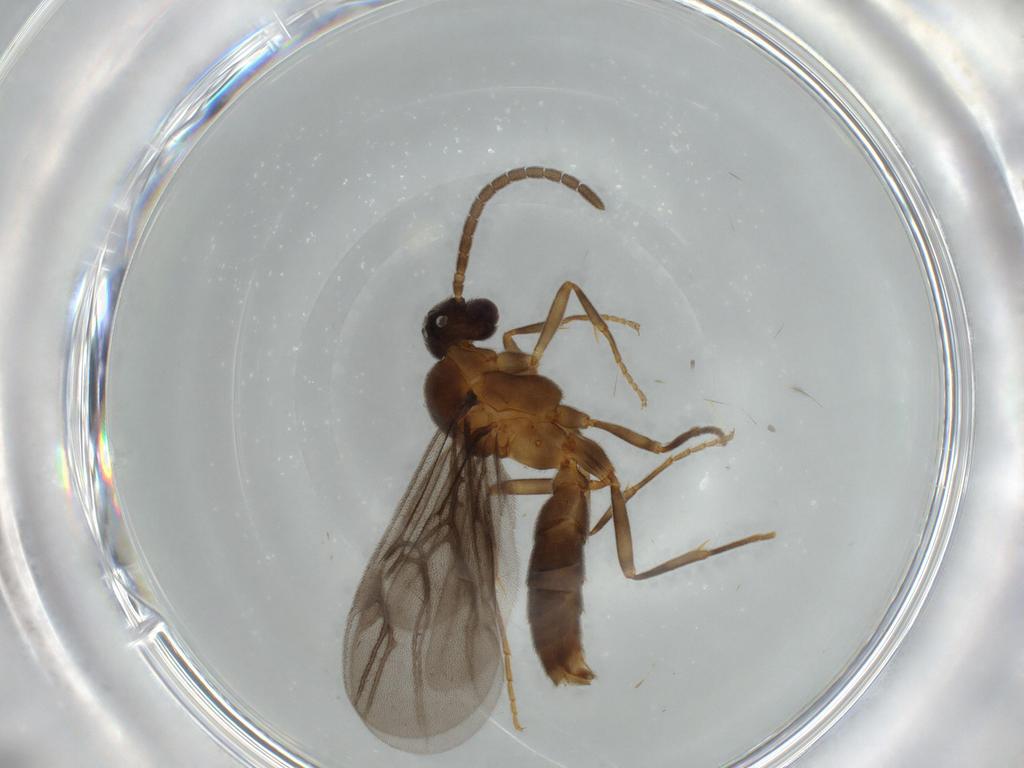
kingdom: Animalia
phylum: Arthropoda
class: Insecta
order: Hymenoptera
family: Formicidae
